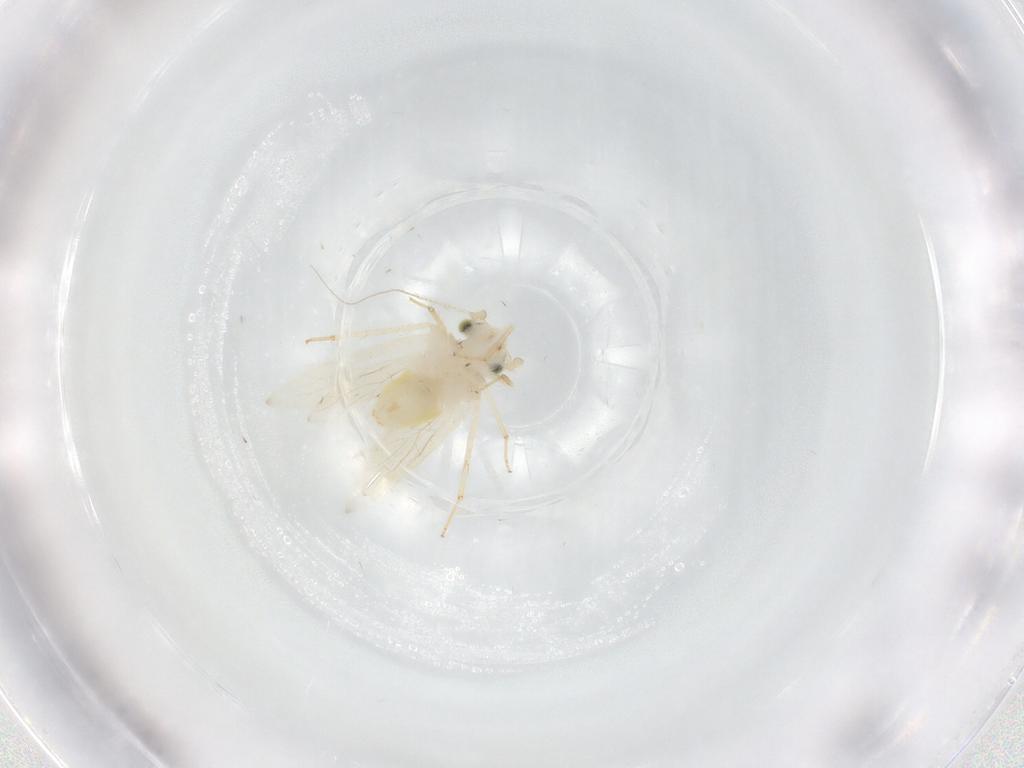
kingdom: Animalia
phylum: Arthropoda
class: Insecta
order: Psocodea
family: Lepidopsocidae
